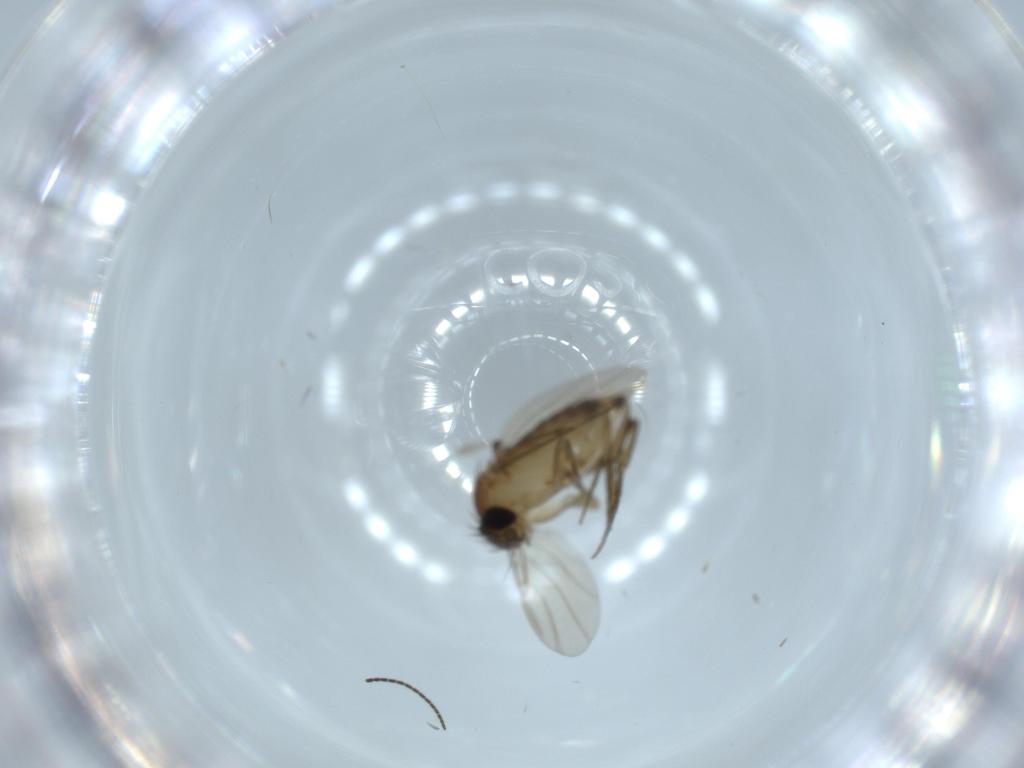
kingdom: Animalia
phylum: Arthropoda
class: Insecta
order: Diptera
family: Phoridae
